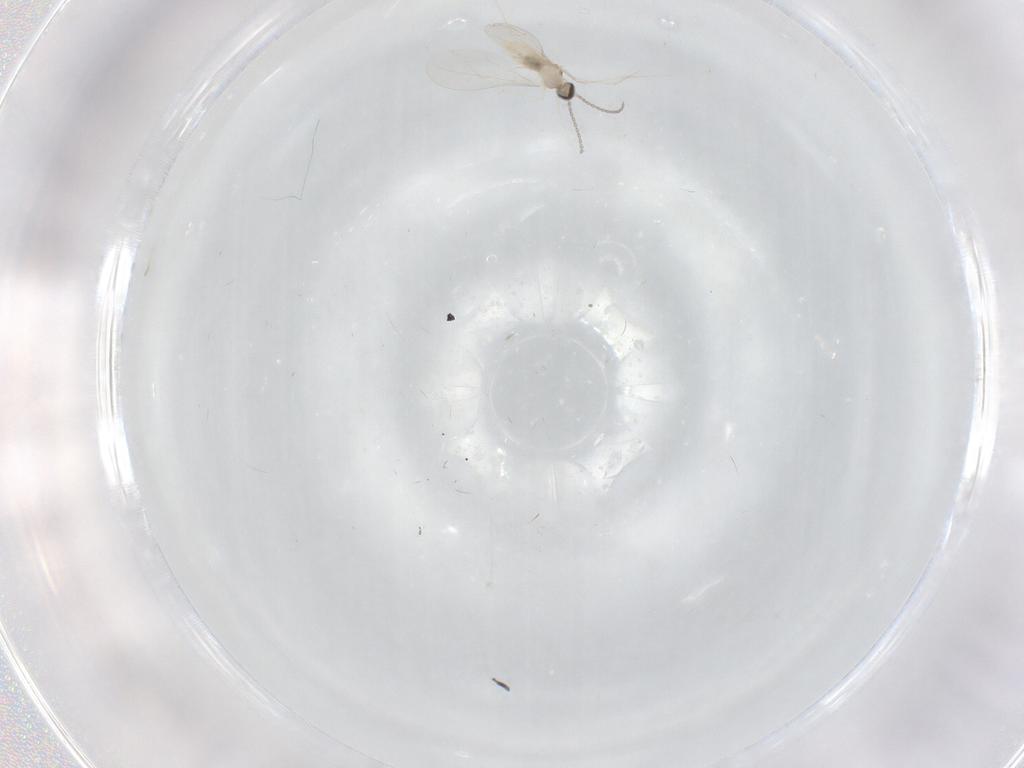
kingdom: Animalia
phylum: Arthropoda
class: Insecta
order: Diptera
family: Cecidomyiidae
